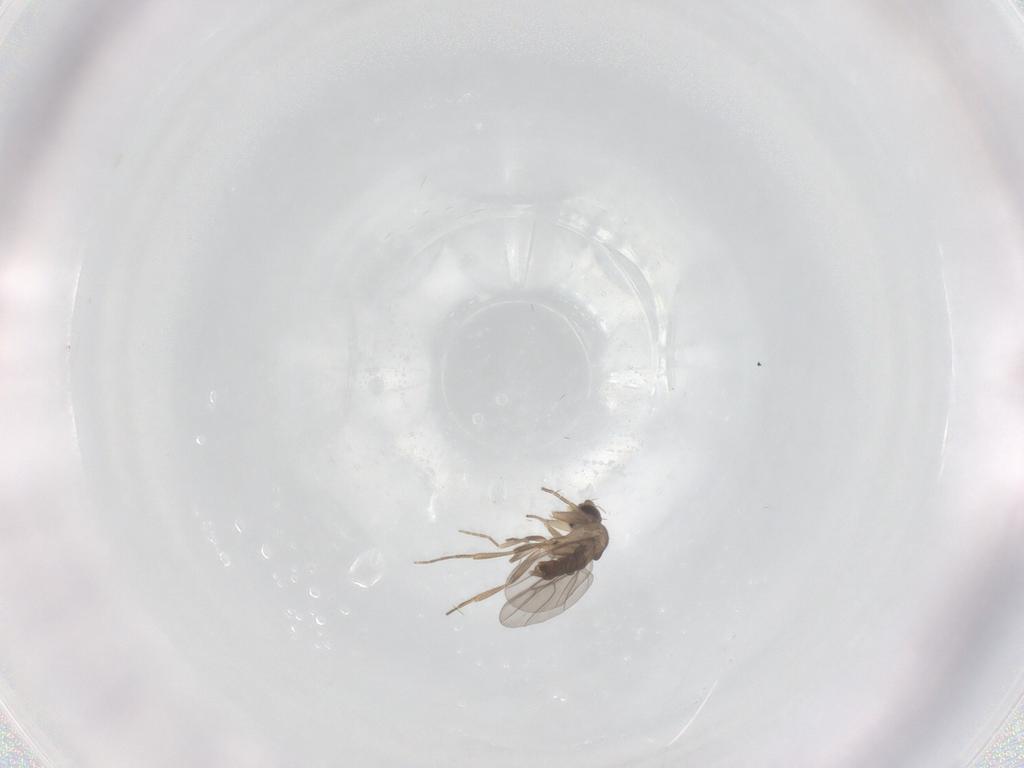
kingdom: Animalia
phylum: Arthropoda
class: Insecta
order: Diptera
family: Phoridae
